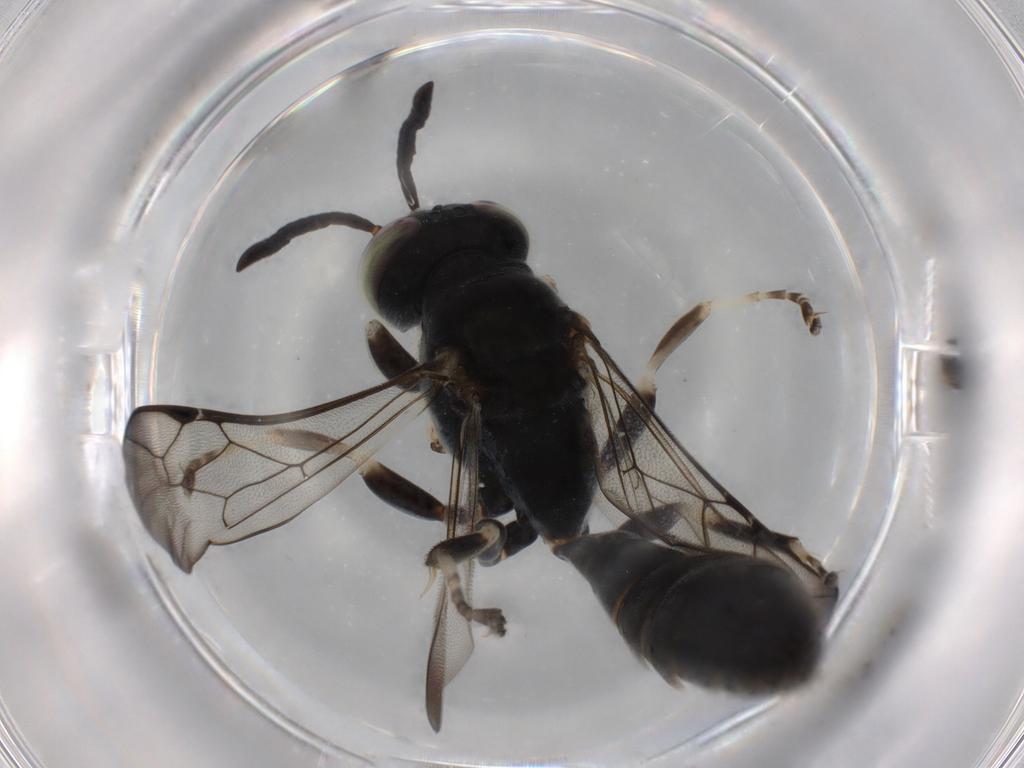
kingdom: Animalia
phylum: Arthropoda
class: Insecta
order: Hymenoptera
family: Crabronidae
